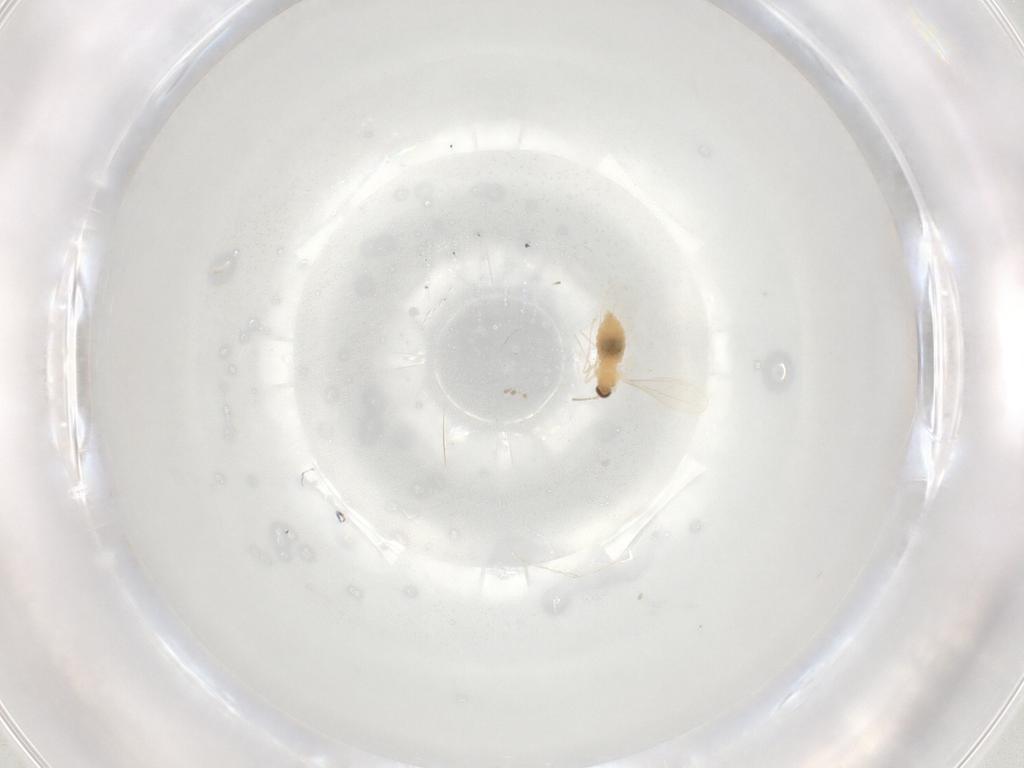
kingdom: Animalia
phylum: Arthropoda
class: Insecta
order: Diptera
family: Cecidomyiidae
